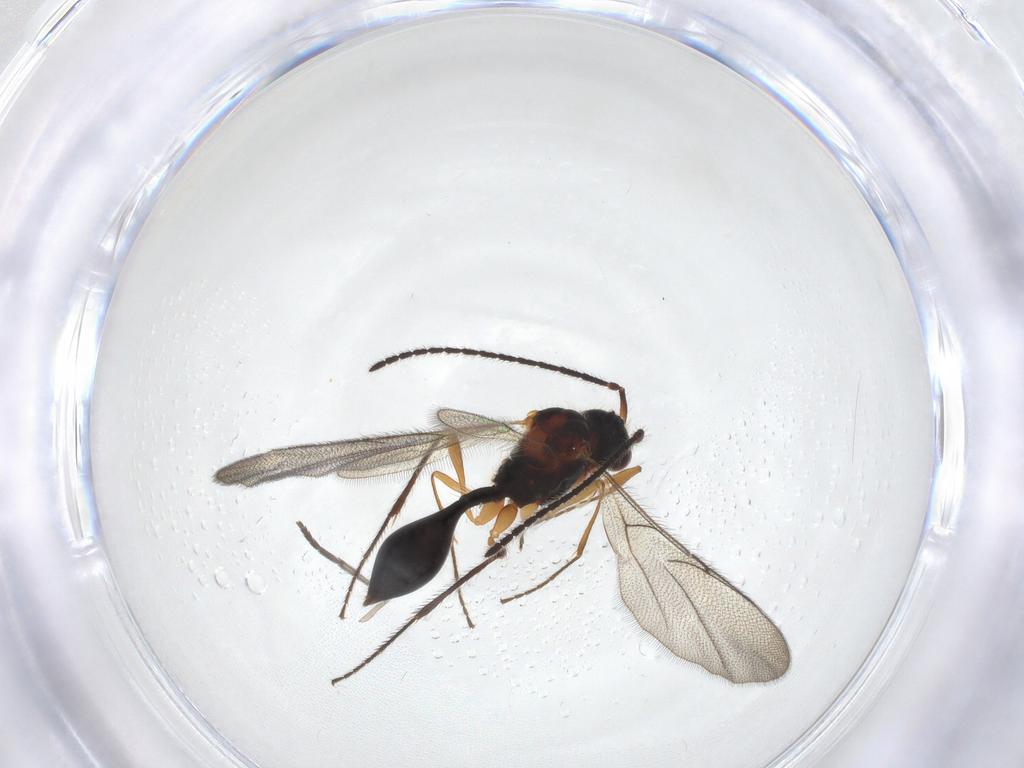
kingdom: Animalia
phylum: Arthropoda
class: Insecta
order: Hymenoptera
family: Diapriidae
